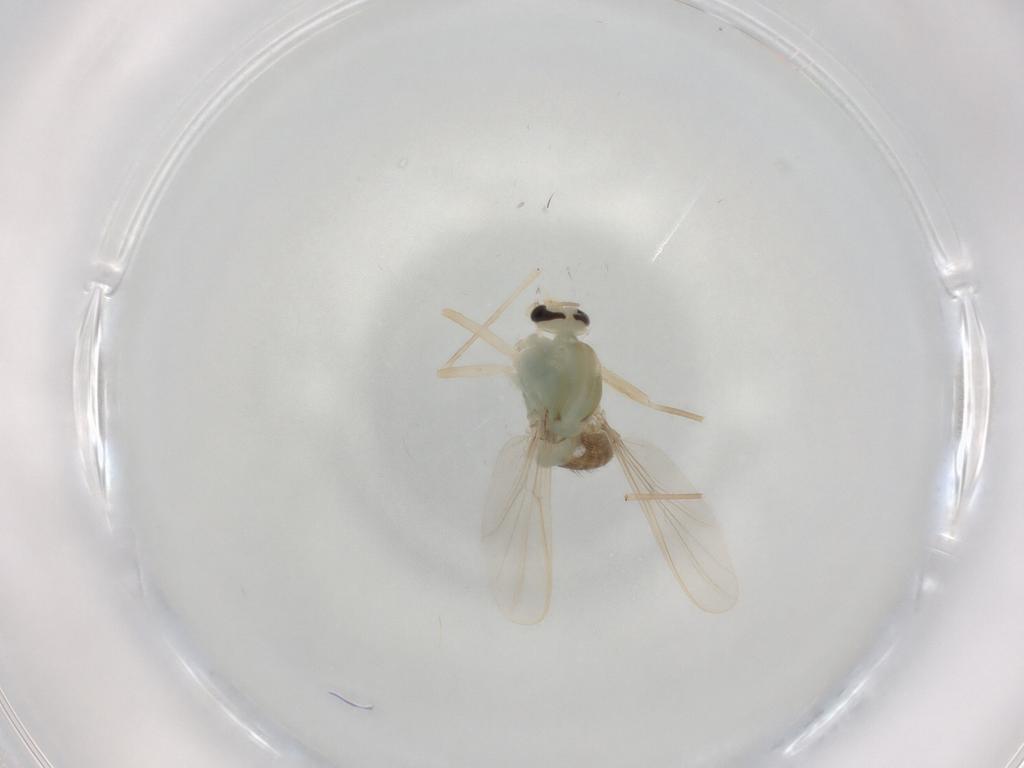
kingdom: Animalia
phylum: Arthropoda
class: Insecta
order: Diptera
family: Chironomidae
